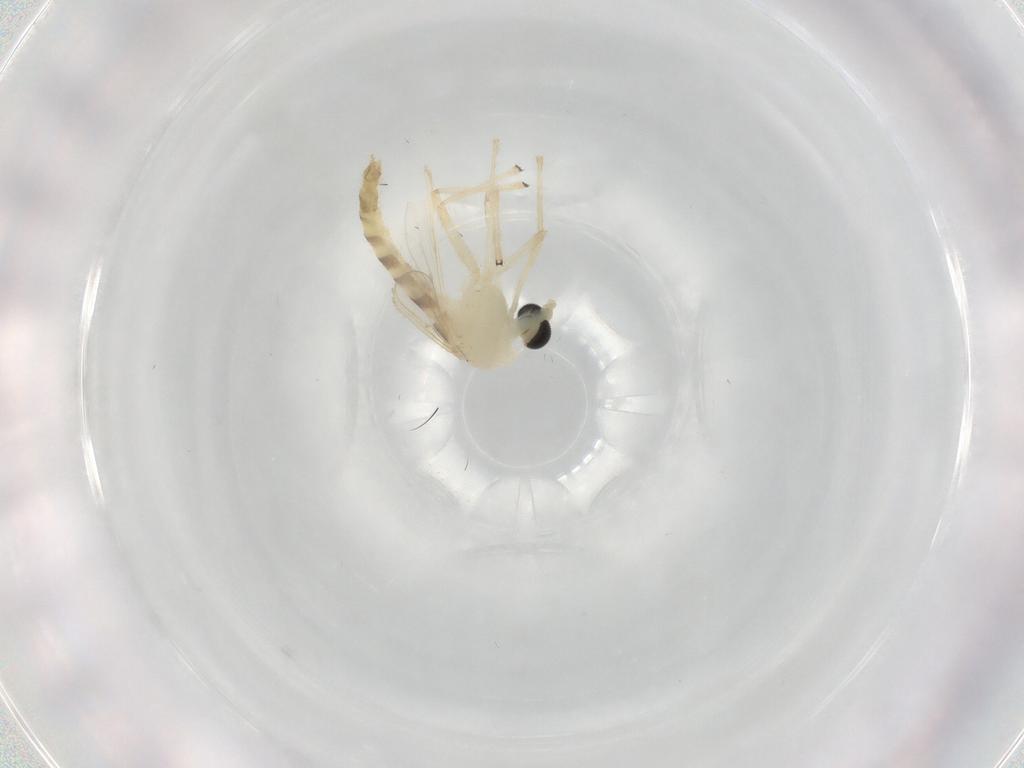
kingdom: Animalia
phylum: Arthropoda
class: Insecta
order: Diptera
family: Chironomidae
